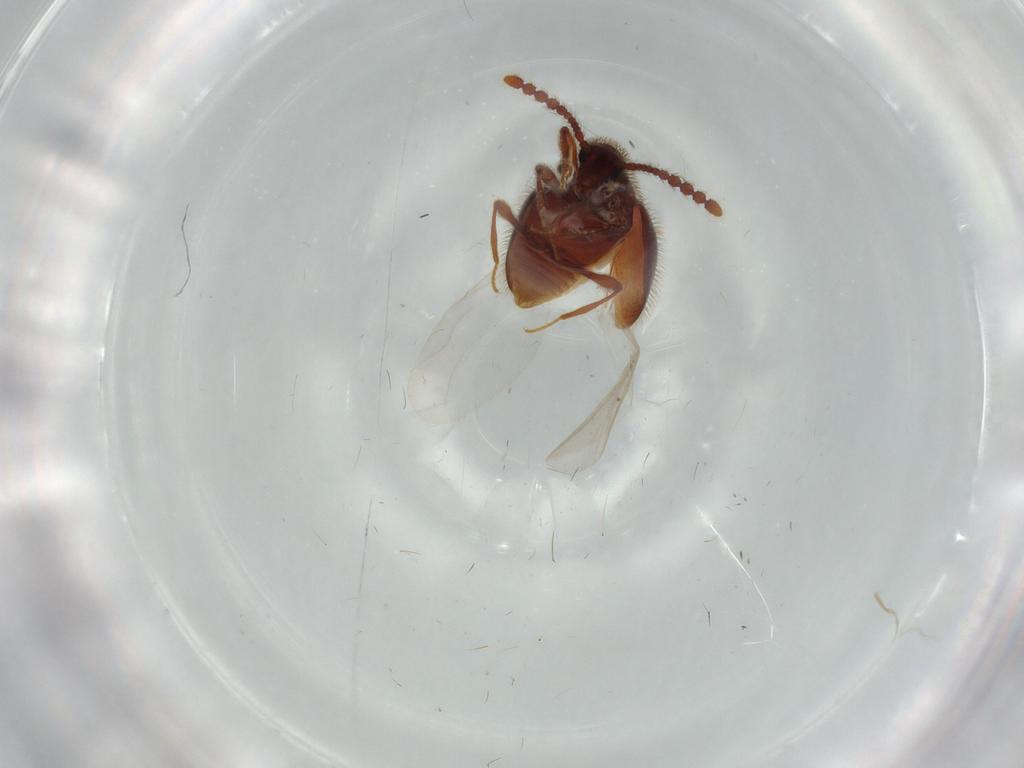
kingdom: Animalia
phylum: Arthropoda
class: Insecta
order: Coleoptera
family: Staphylinidae
